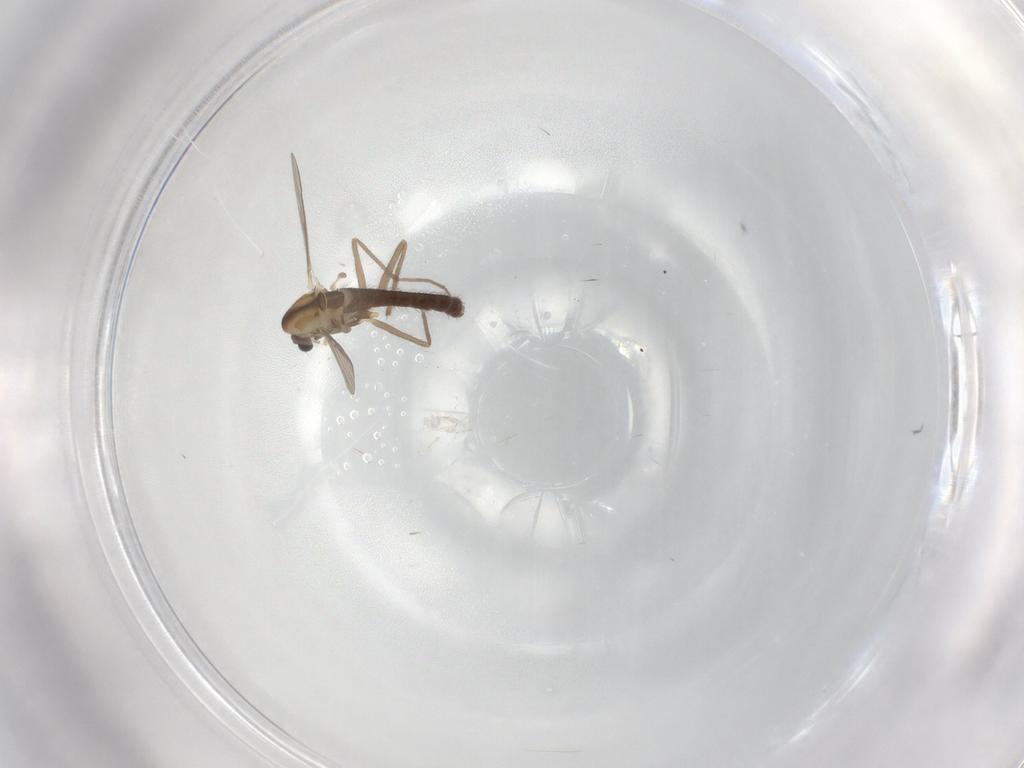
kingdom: Animalia
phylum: Arthropoda
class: Insecta
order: Diptera
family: Chironomidae
